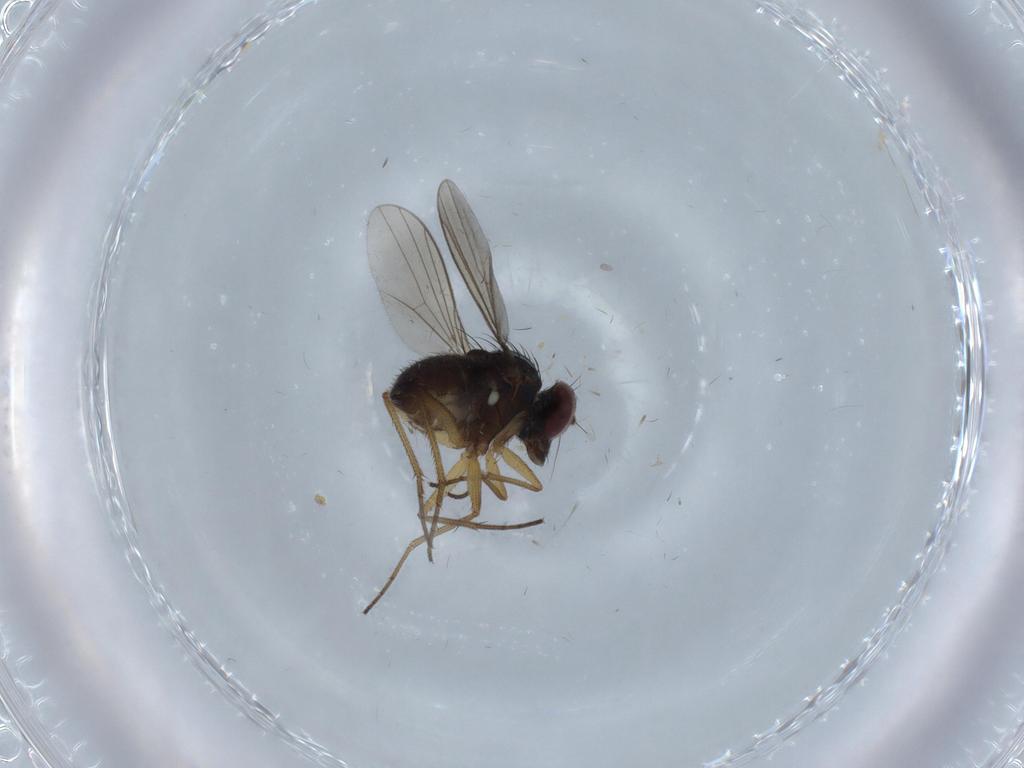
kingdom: Animalia
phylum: Arthropoda
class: Insecta
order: Diptera
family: Cecidomyiidae
